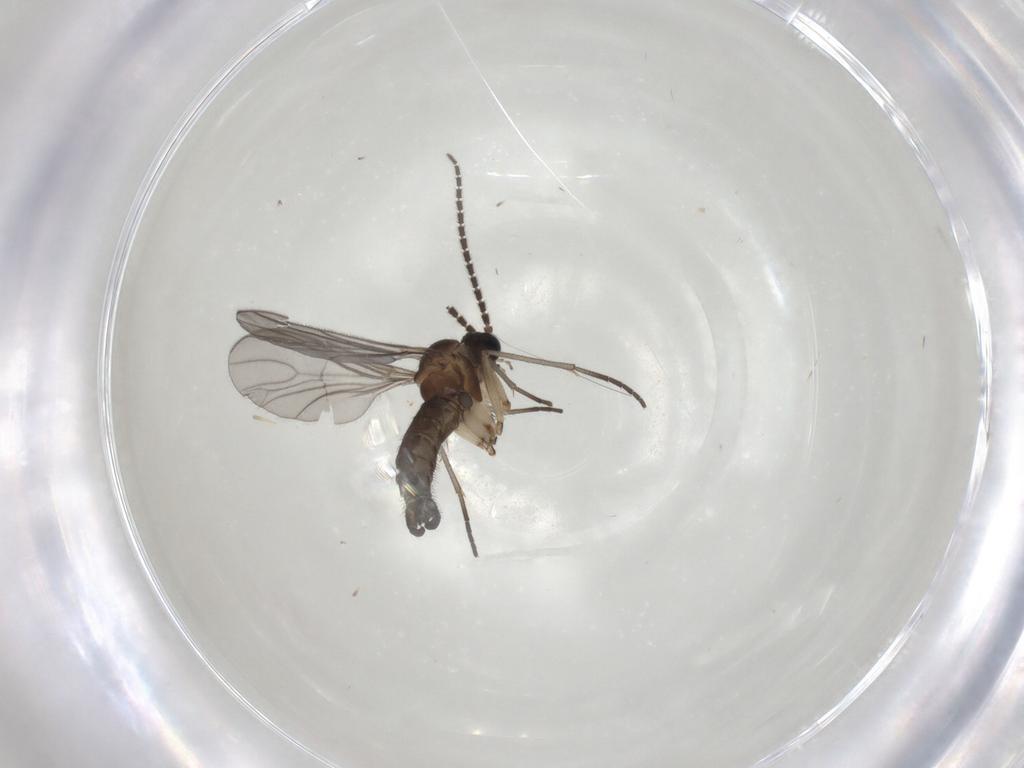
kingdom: Animalia
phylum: Arthropoda
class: Insecta
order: Diptera
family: Sciaridae
